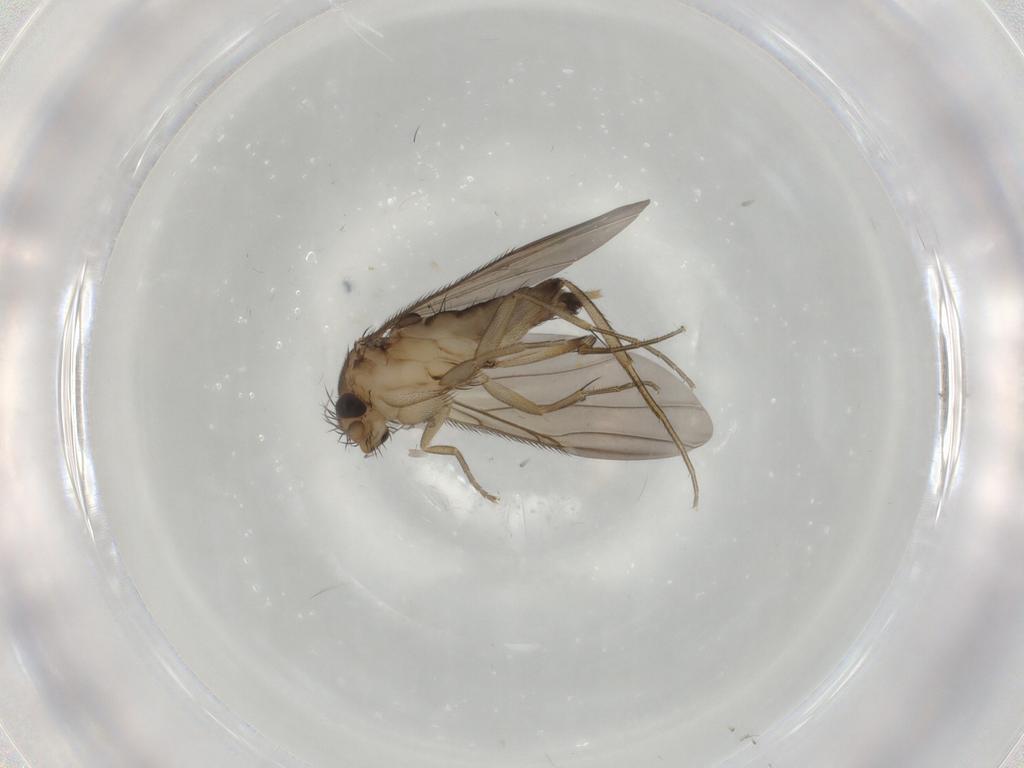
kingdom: Animalia
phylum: Arthropoda
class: Insecta
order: Diptera
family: Phoridae
